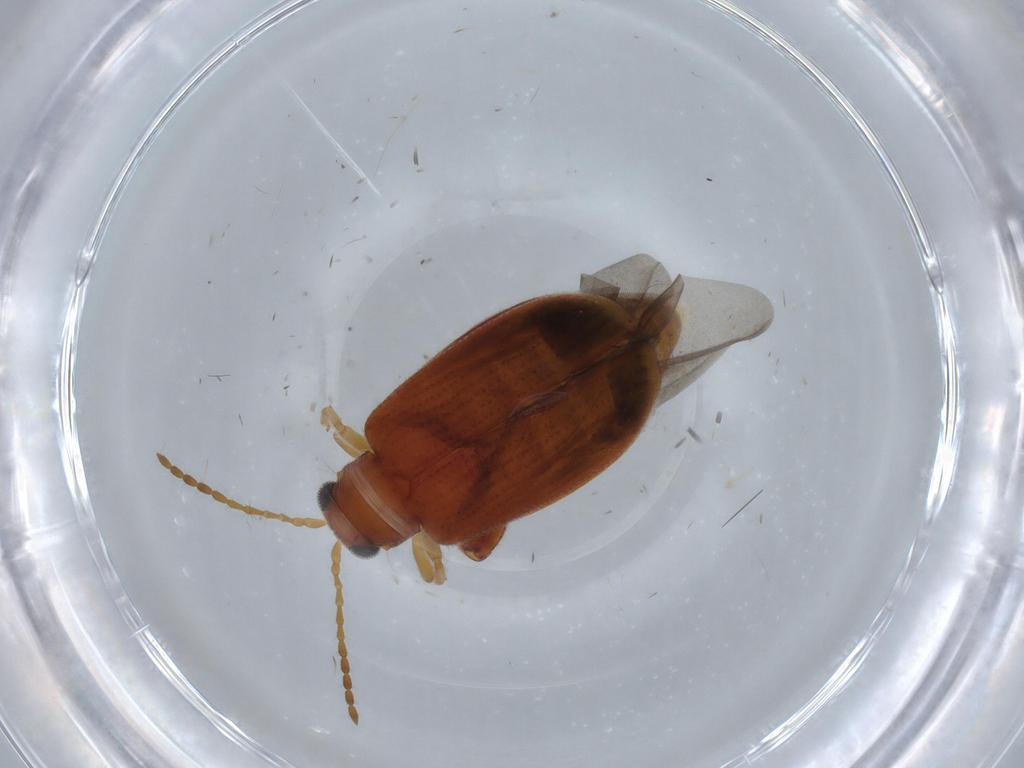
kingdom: Animalia
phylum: Arthropoda
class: Insecta
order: Coleoptera
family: Chrysomelidae
